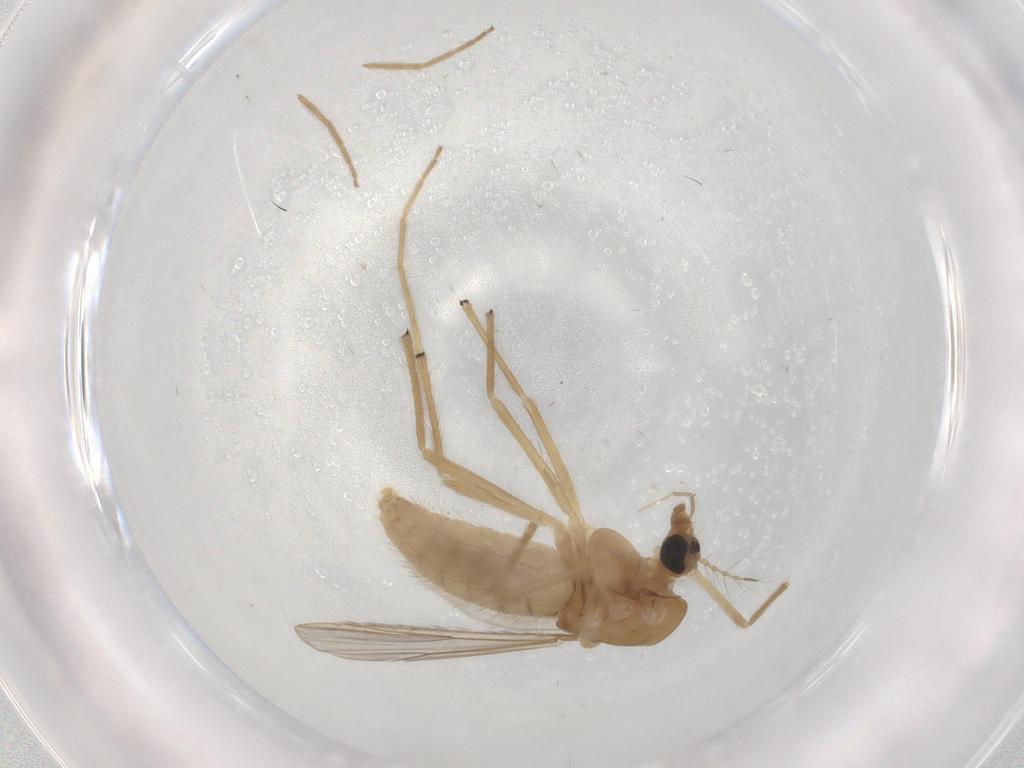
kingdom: Animalia
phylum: Arthropoda
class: Insecta
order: Diptera
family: Chironomidae
